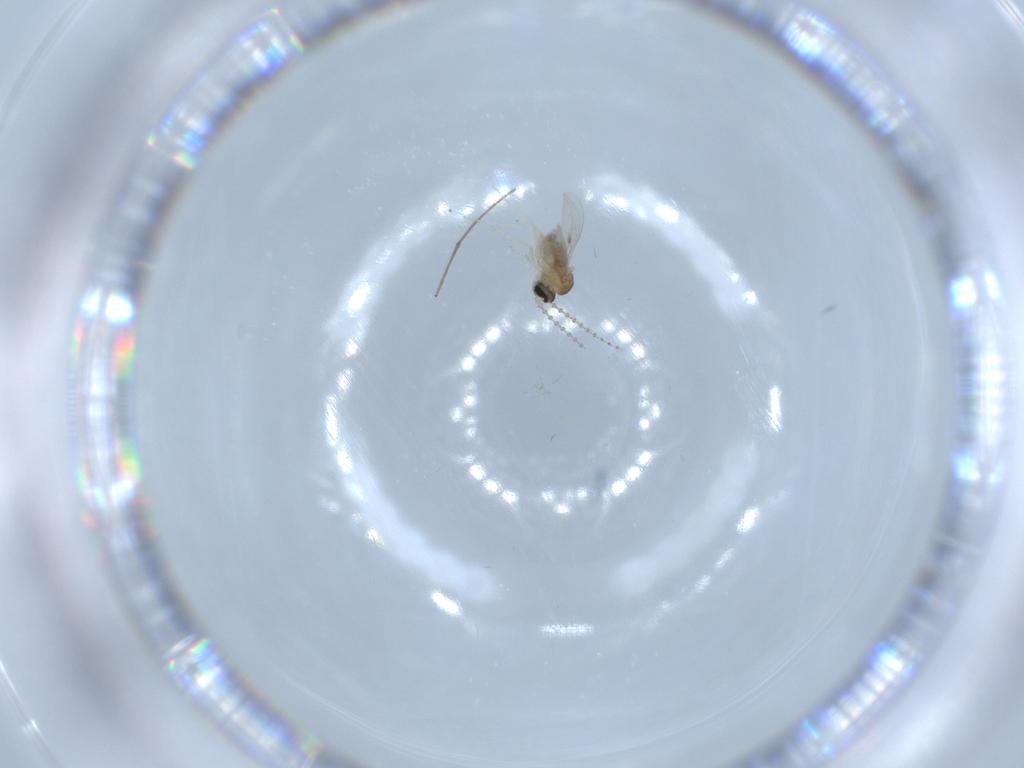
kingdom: Animalia
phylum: Arthropoda
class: Insecta
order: Diptera
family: Cecidomyiidae
